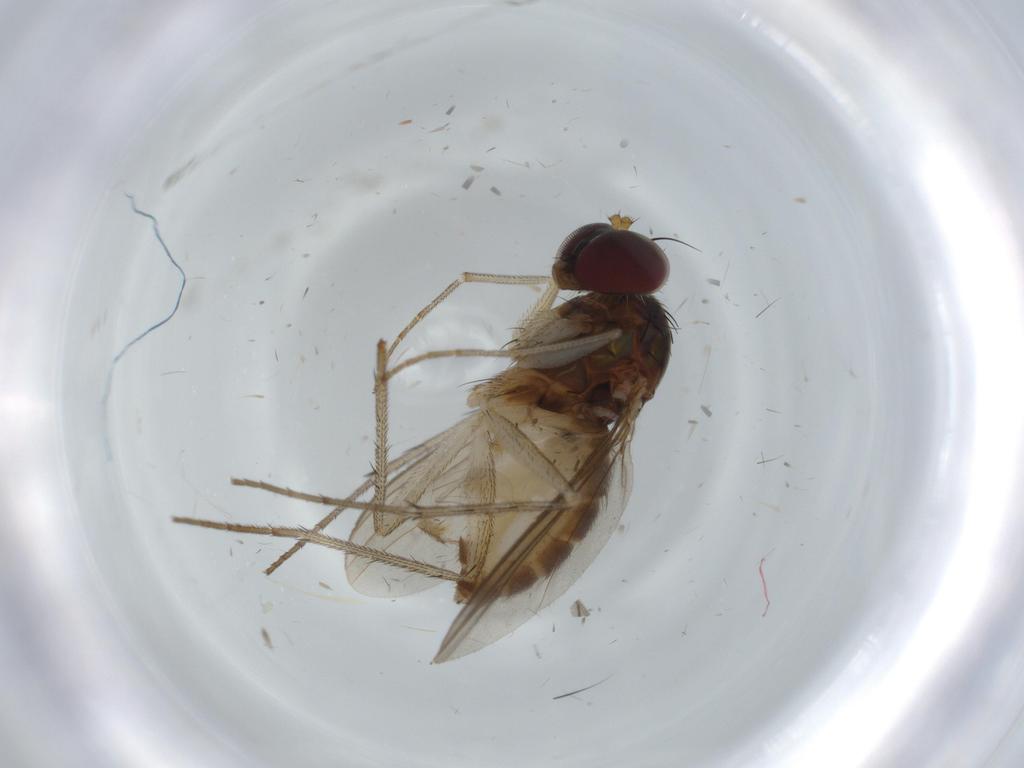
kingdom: Animalia
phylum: Arthropoda
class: Insecta
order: Diptera
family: Dolichopodidae
